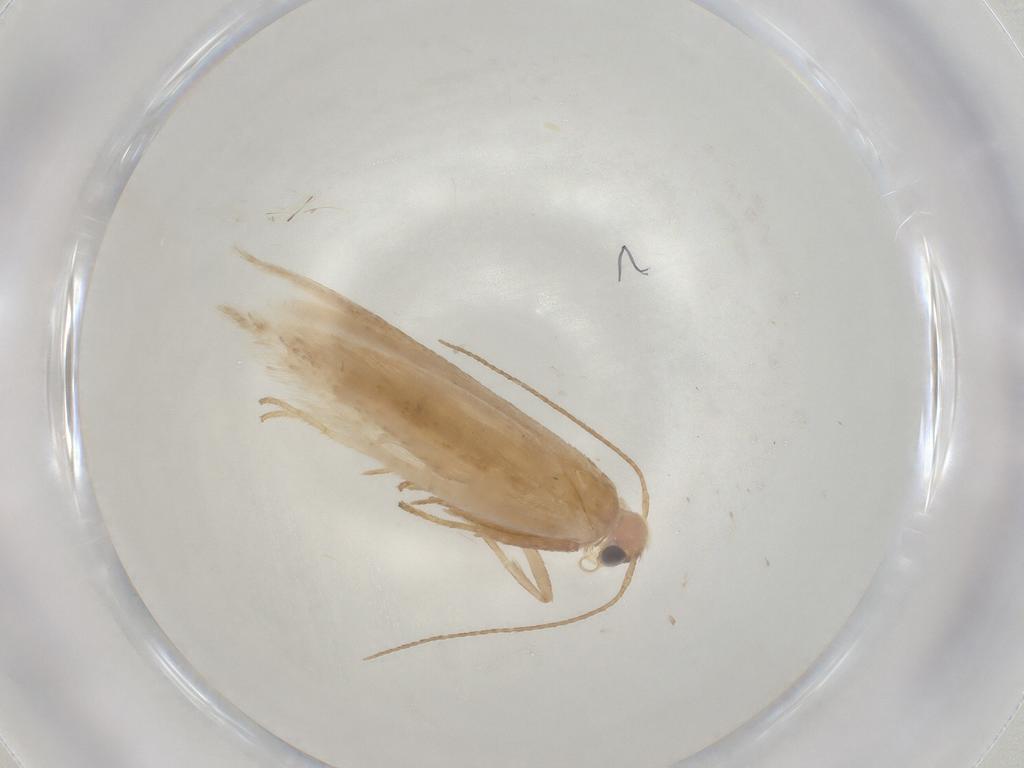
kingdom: Animalia
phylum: Arthropoda
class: Insecta
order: Lepidoptera
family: Gelechiidae
